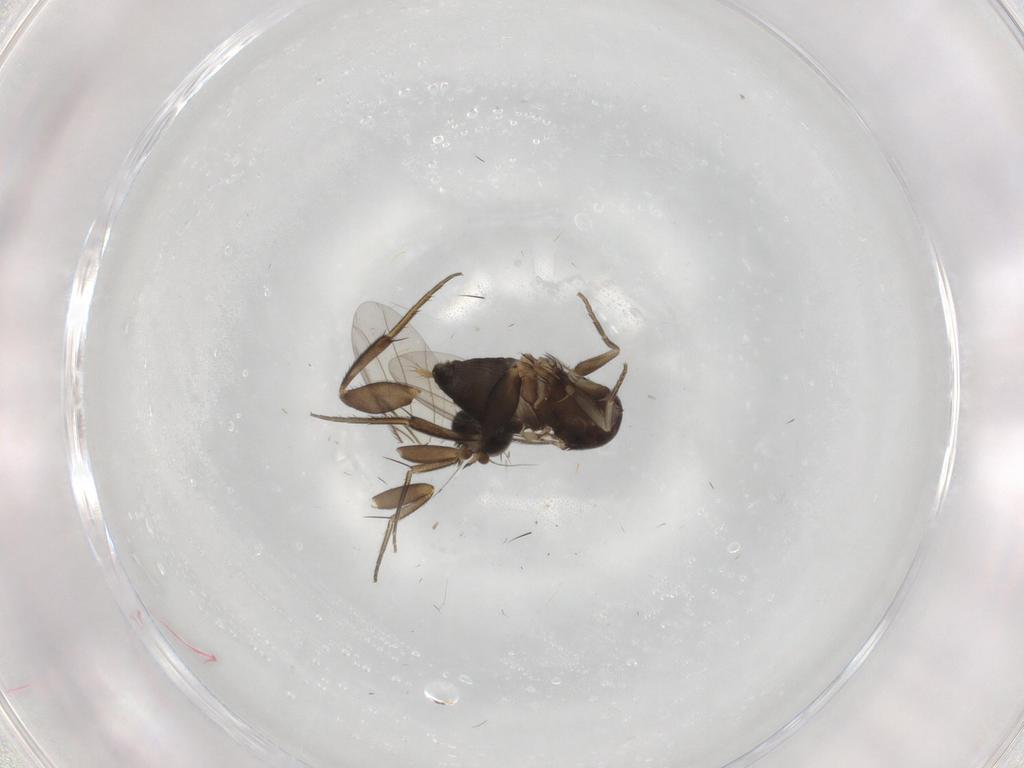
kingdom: Animalia
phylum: Arthropoda
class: Insecta
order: Diptera
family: Phoridae
